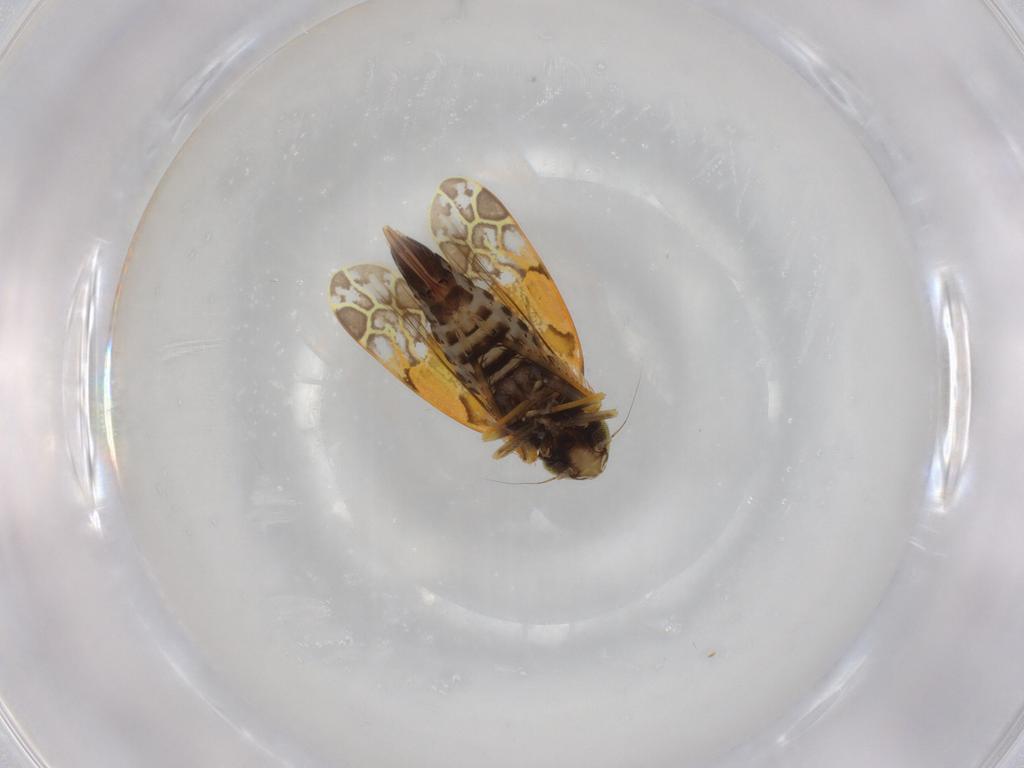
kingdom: Animalia
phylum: Arthropoda
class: Insecta
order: Hemiptera
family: Cicadellidae
